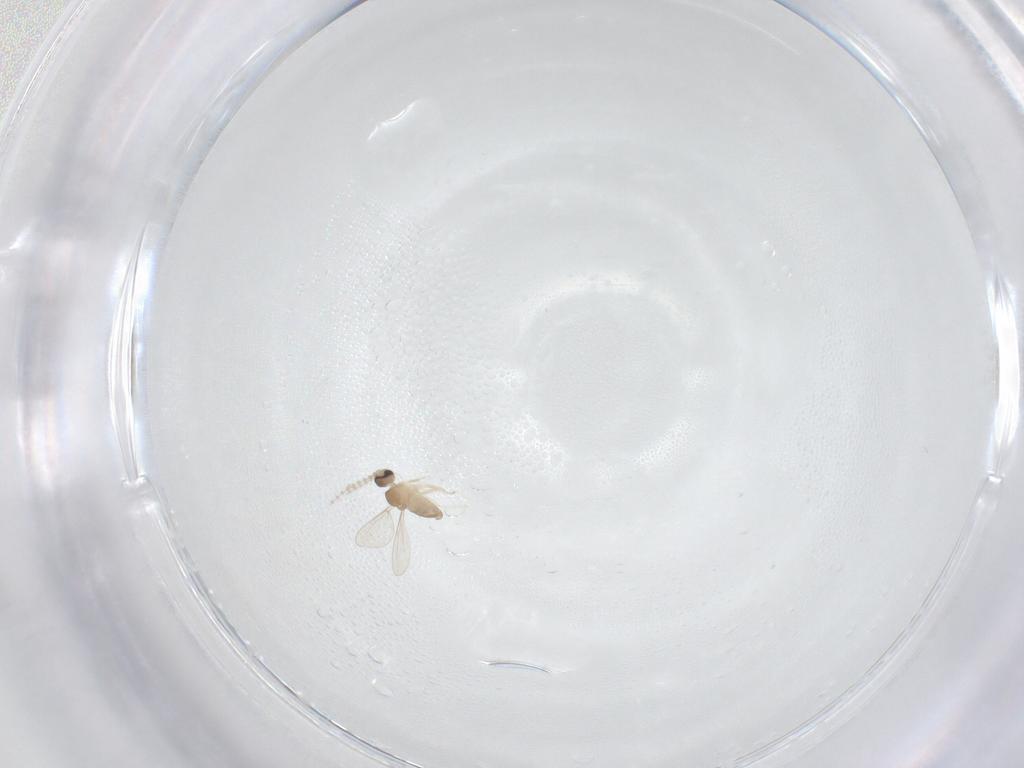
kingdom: Animalia
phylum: Arthropoda
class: Insecta
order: Diptera
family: Cecidomyiidae
